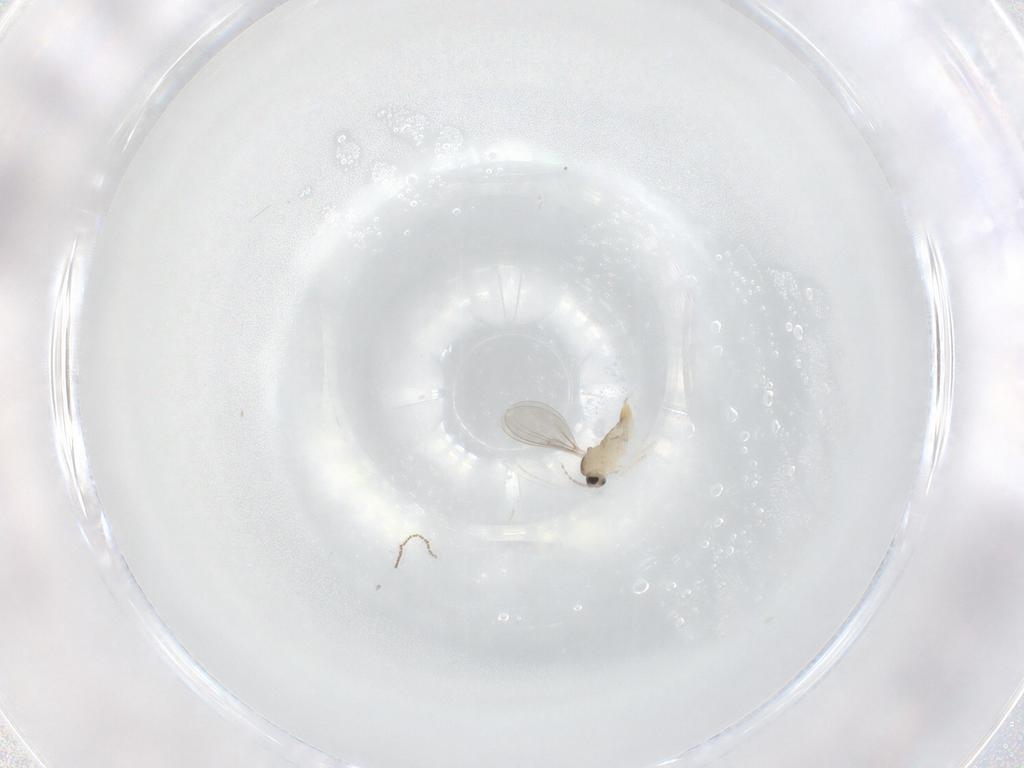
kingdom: Animalia
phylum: Arthropoda
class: Insecta
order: Diptera
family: Cecidomyiidae
